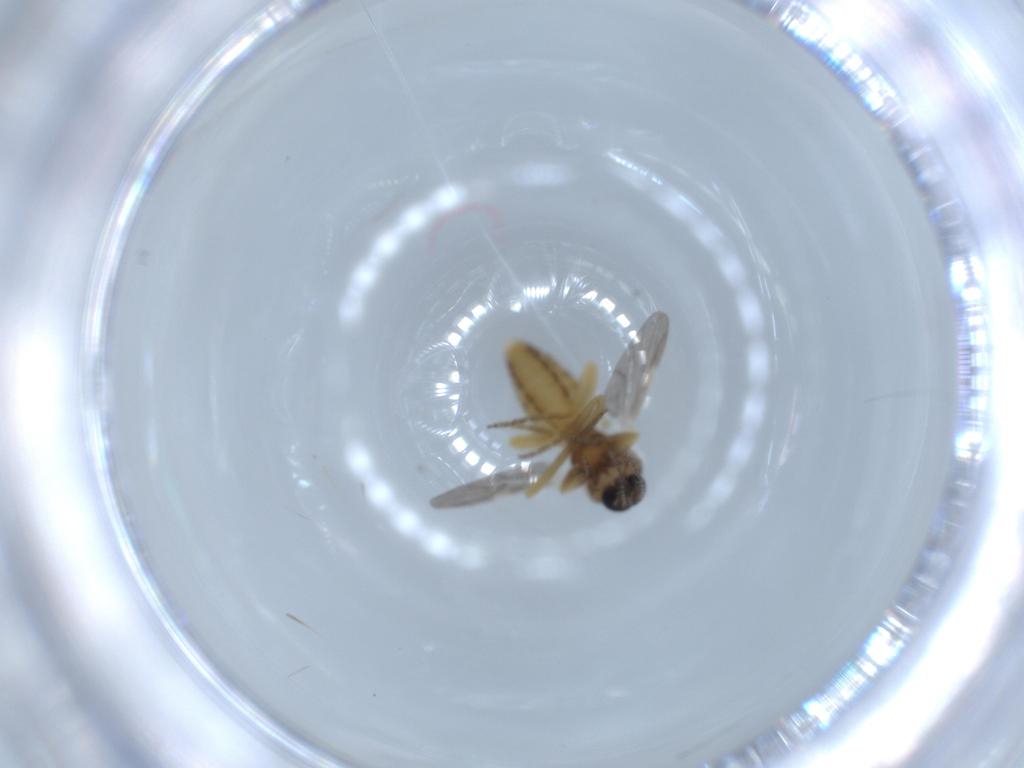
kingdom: Animalia
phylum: Arthropoda
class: Insecta
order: Diptera
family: Ceratopogonidae
